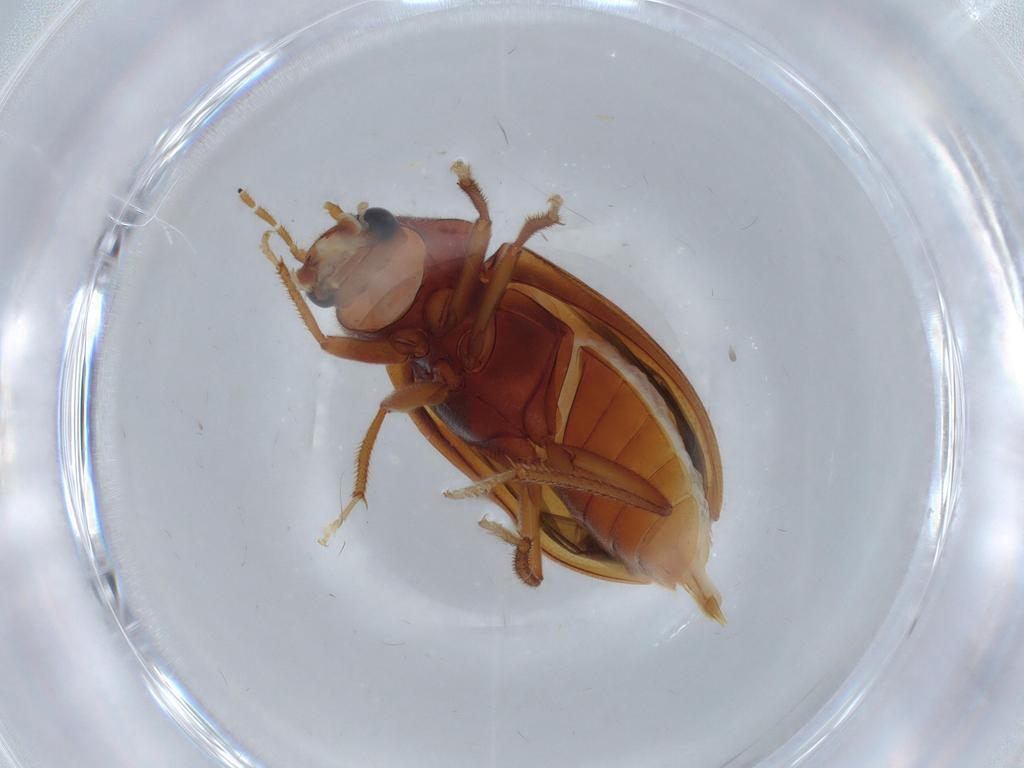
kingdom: Animalia
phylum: Arthropoda
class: Insecta
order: Coleoptera
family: Ptilodactylidae
